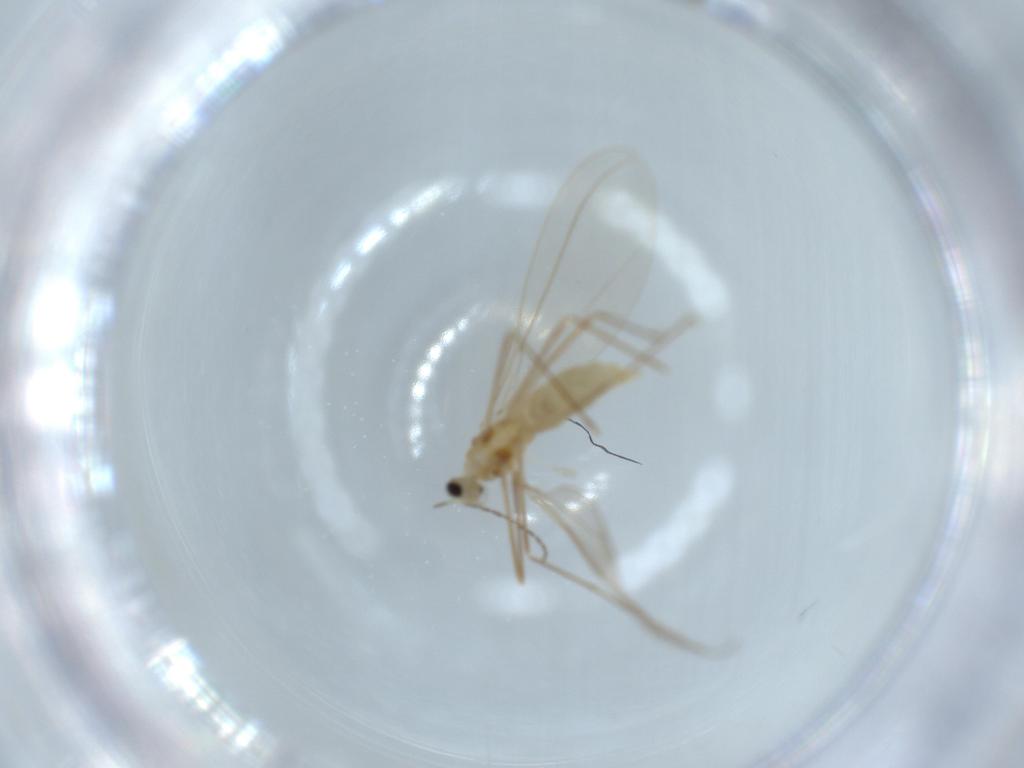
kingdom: Animalia
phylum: Arthropoda
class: Insecta
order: Diptera
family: Cecidomyiidae
